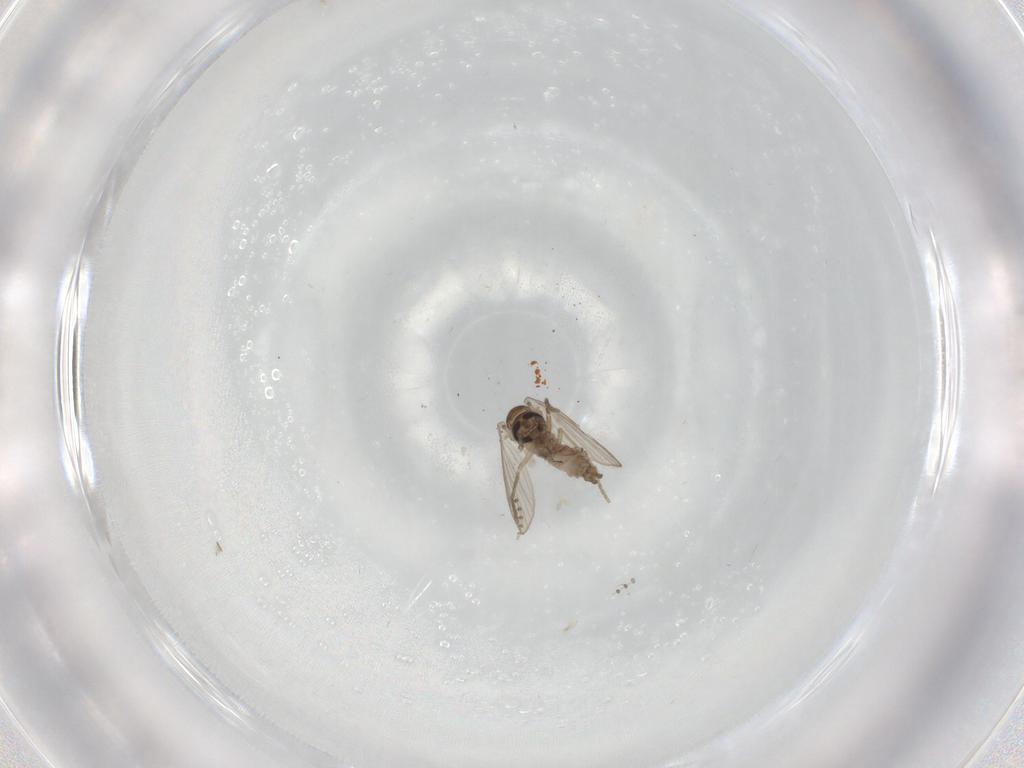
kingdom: Animalia
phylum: Arthropoda
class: Insecta
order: Diptera
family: Psychodidae
